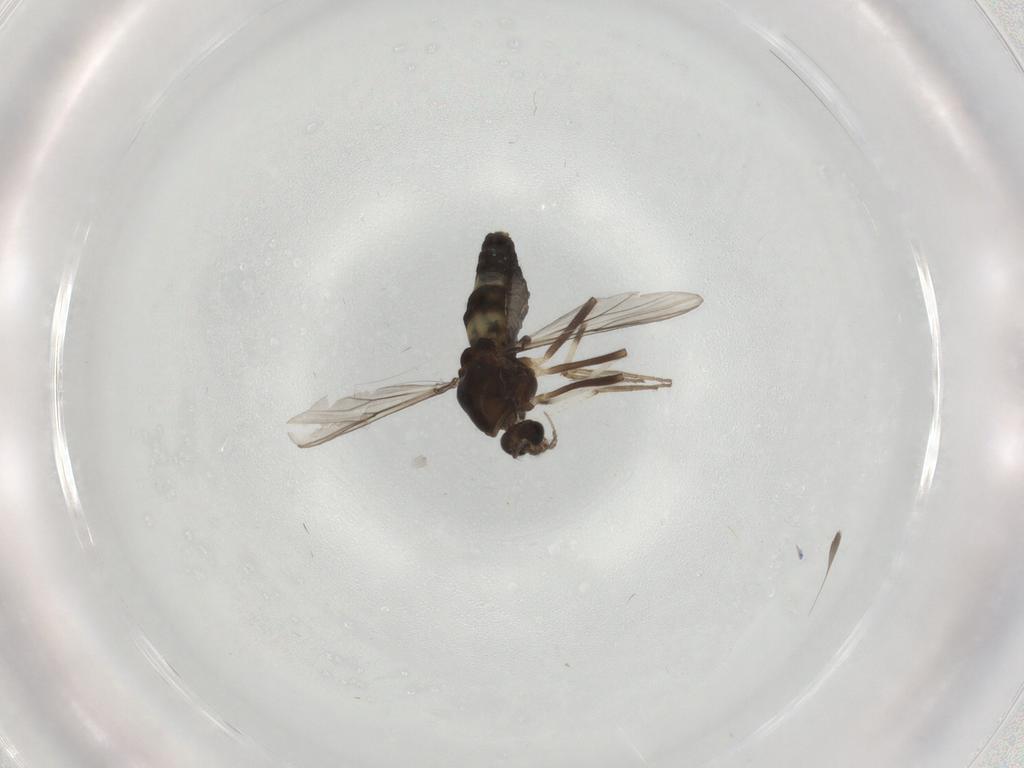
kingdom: Animalia
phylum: Arthropoda
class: Insecta
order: Diptera
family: Chironomidae
